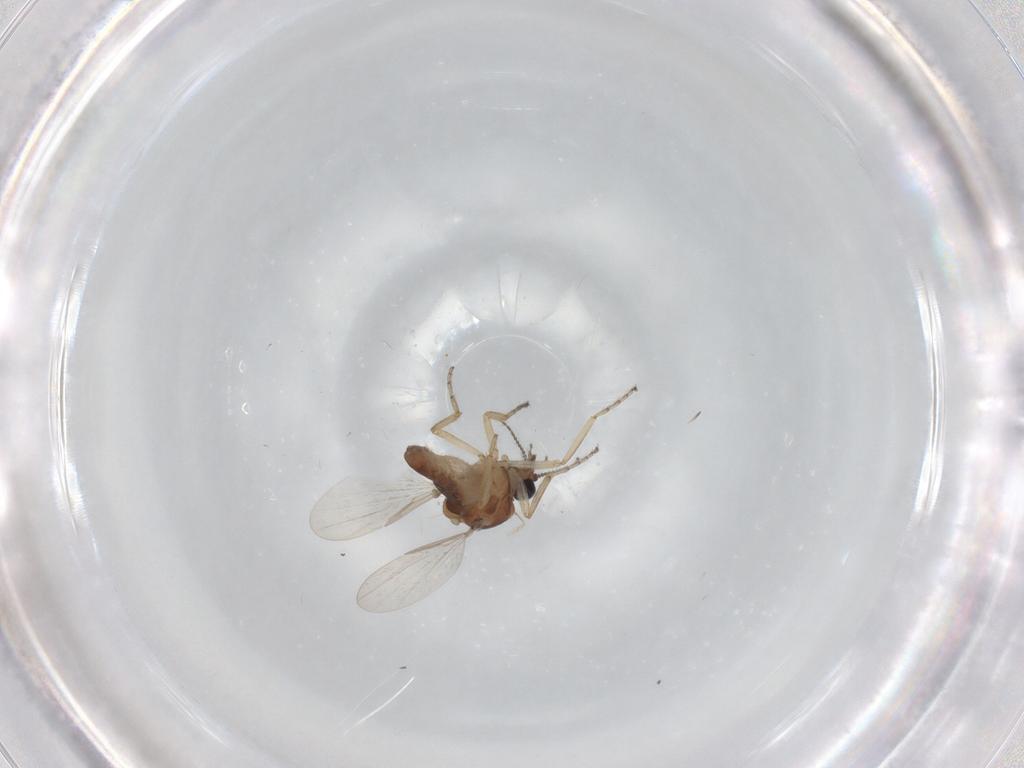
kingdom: Animalia
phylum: Arthropoda
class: Insecta
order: Diptera
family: Ceratopogonidae
